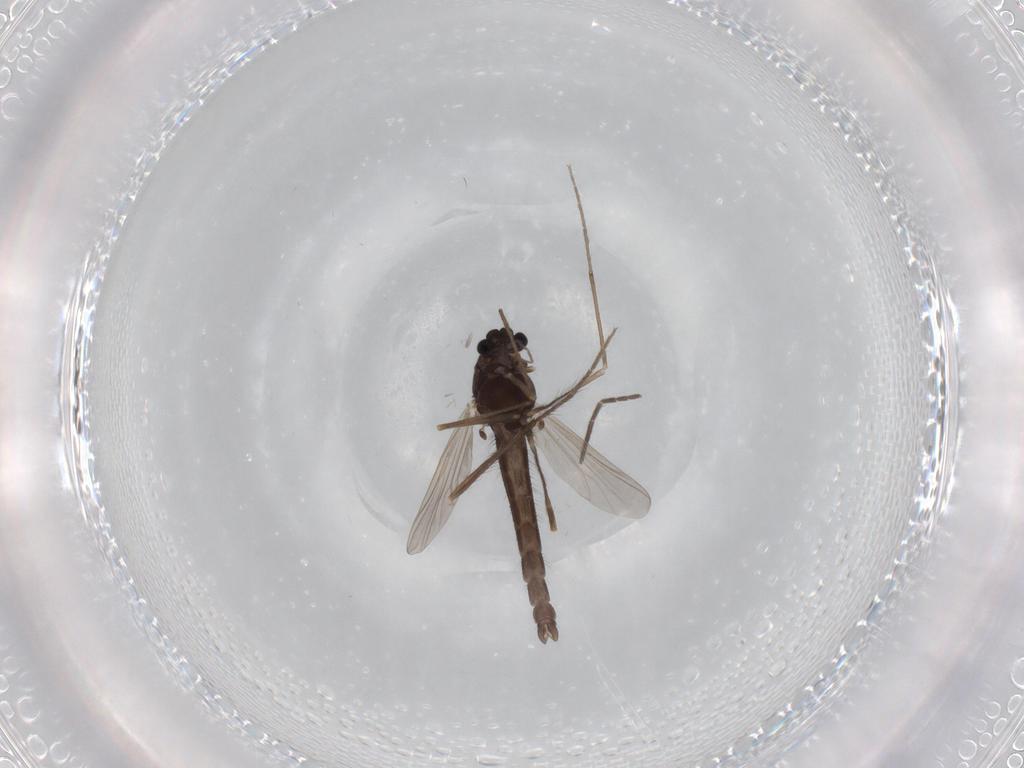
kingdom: Animalia
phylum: Arthropoda
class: Insecta
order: Diptera
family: Chironomidae
